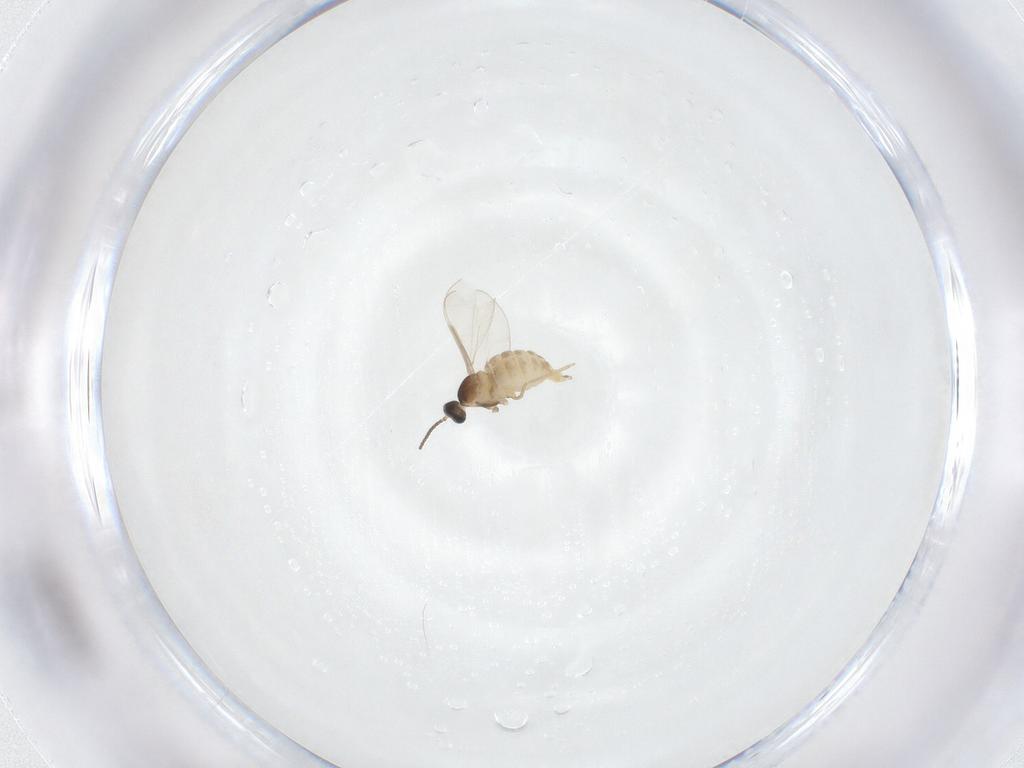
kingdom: Animalia
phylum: Arthropoda
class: Insecta
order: Diptera
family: Cecidomyiidae
